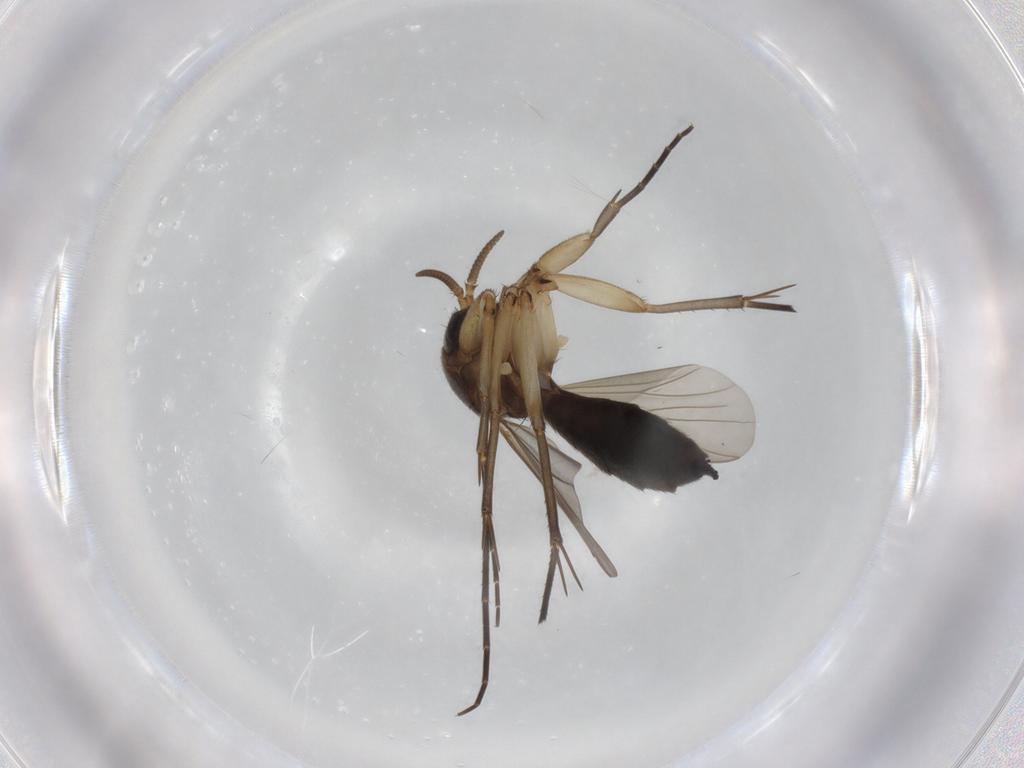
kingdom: Animalia
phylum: Arthropoda
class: Insecta
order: Diptera
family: Mycetophilidae
